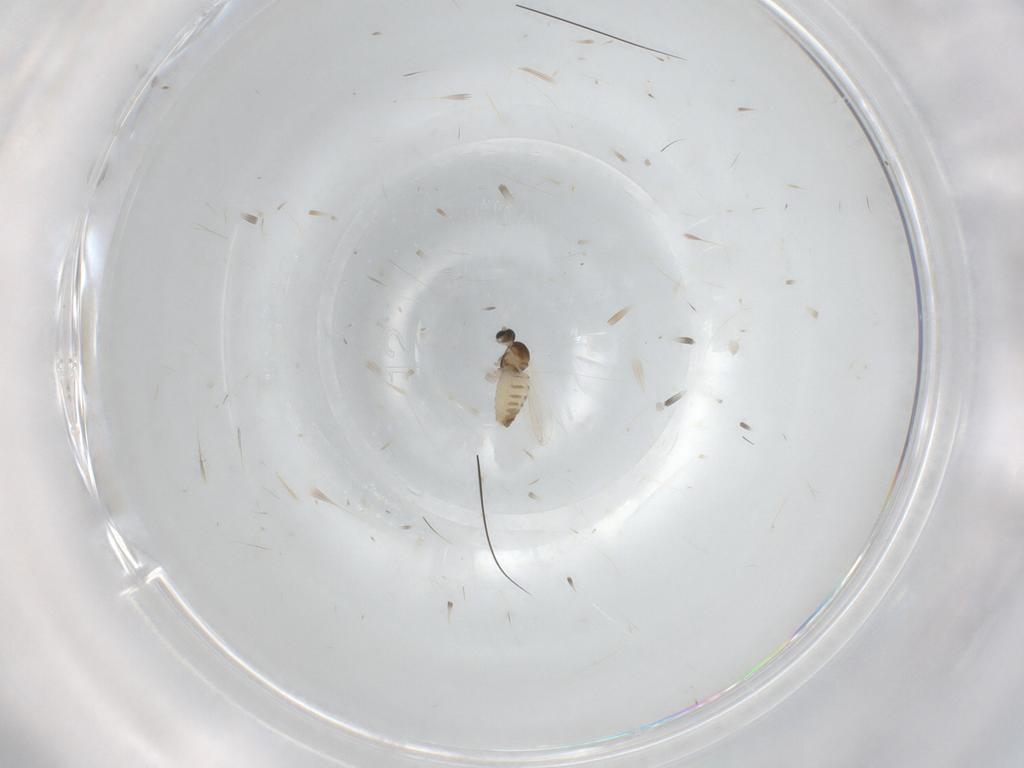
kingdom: Animalia
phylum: Arthropoda
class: Insecta
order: Diptera
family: Cecidomyiidae
